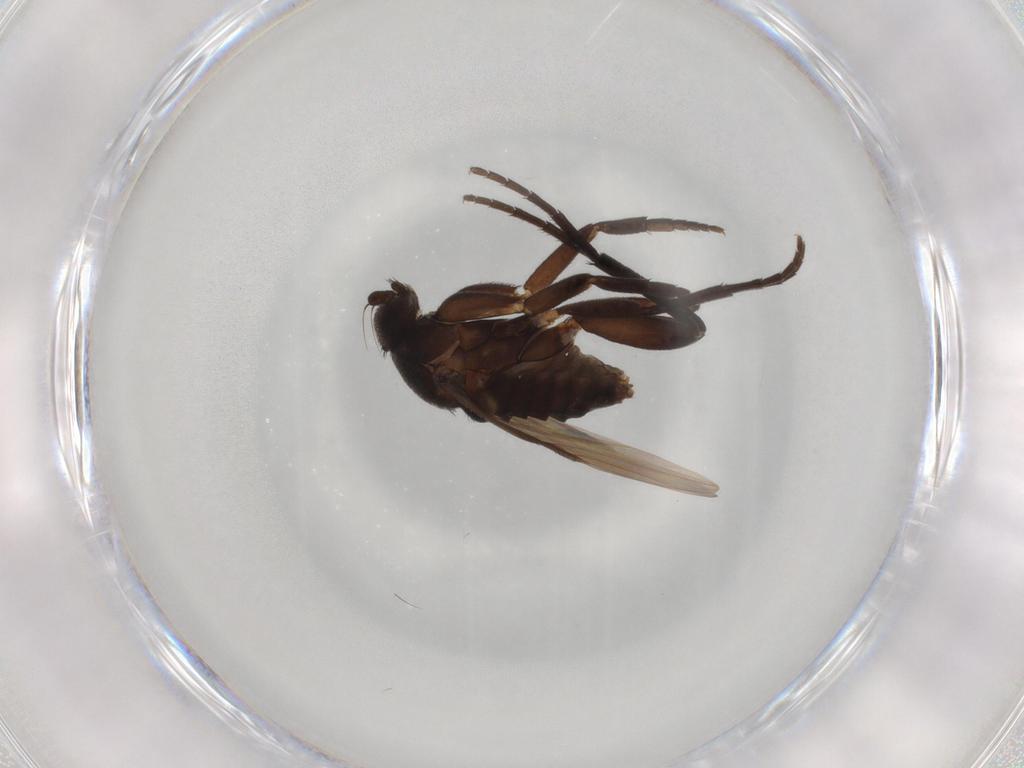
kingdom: Animalia
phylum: Arthropoda
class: Insecta
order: Diptera
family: Phoridae
